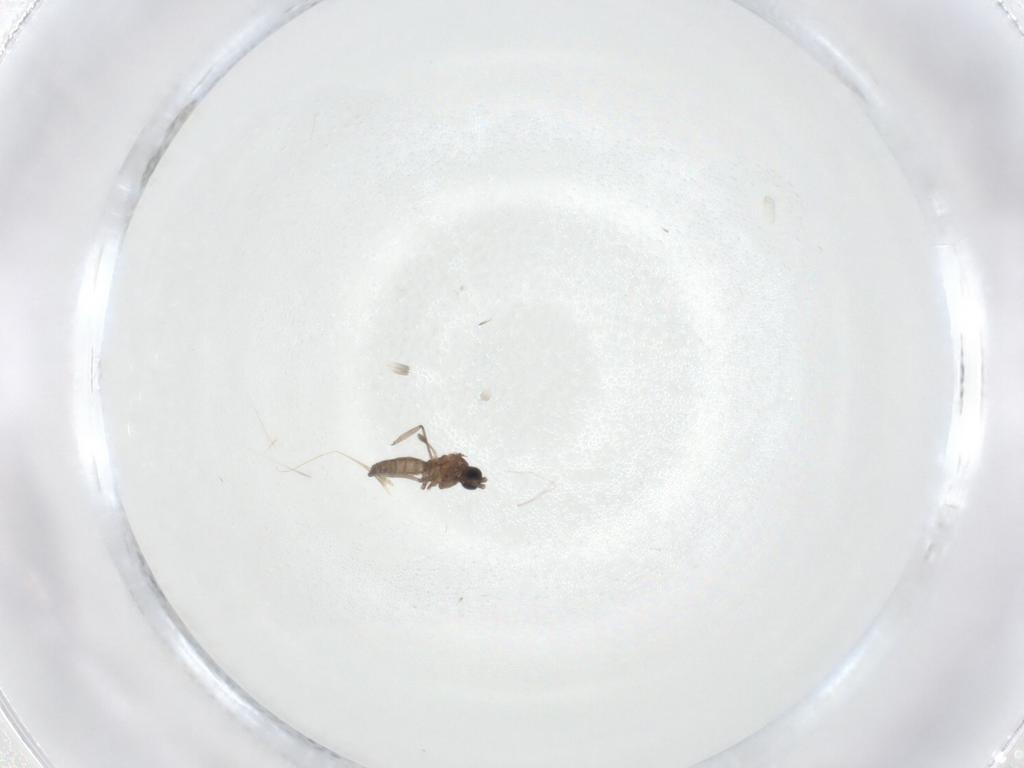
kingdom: Animalia
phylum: Arthropoda
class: Insecta
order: Diptera
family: Sciaridae
